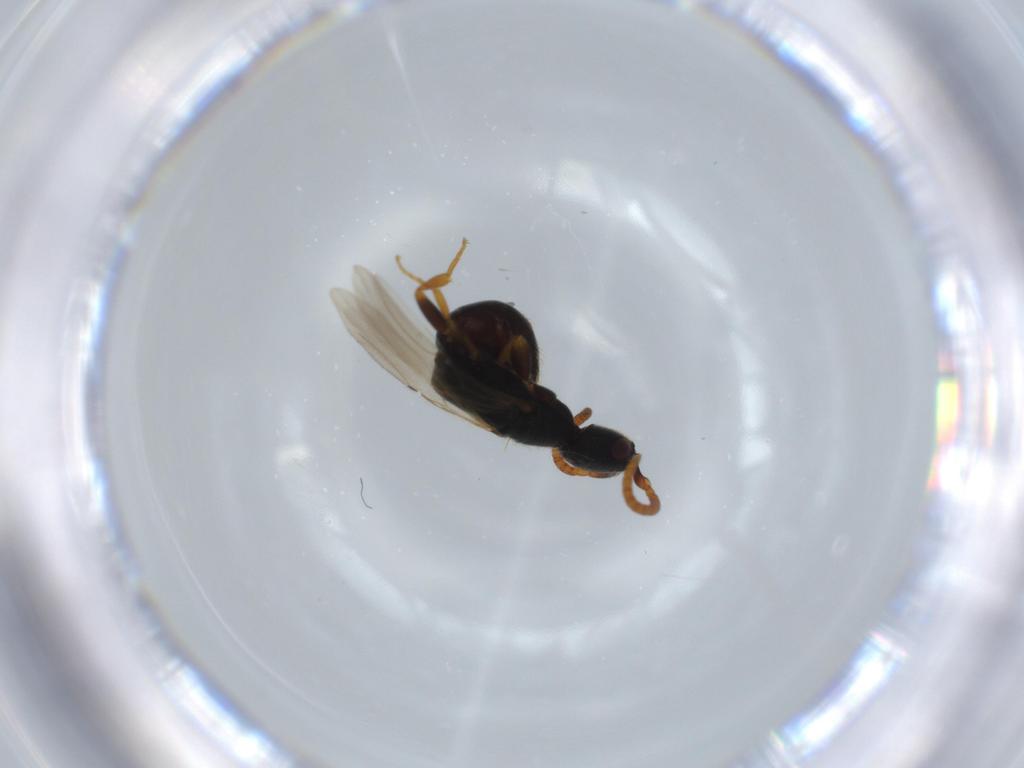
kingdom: Animalia
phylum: Arthropoda
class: Insecta
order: Hymenoptera
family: Bethylidae
